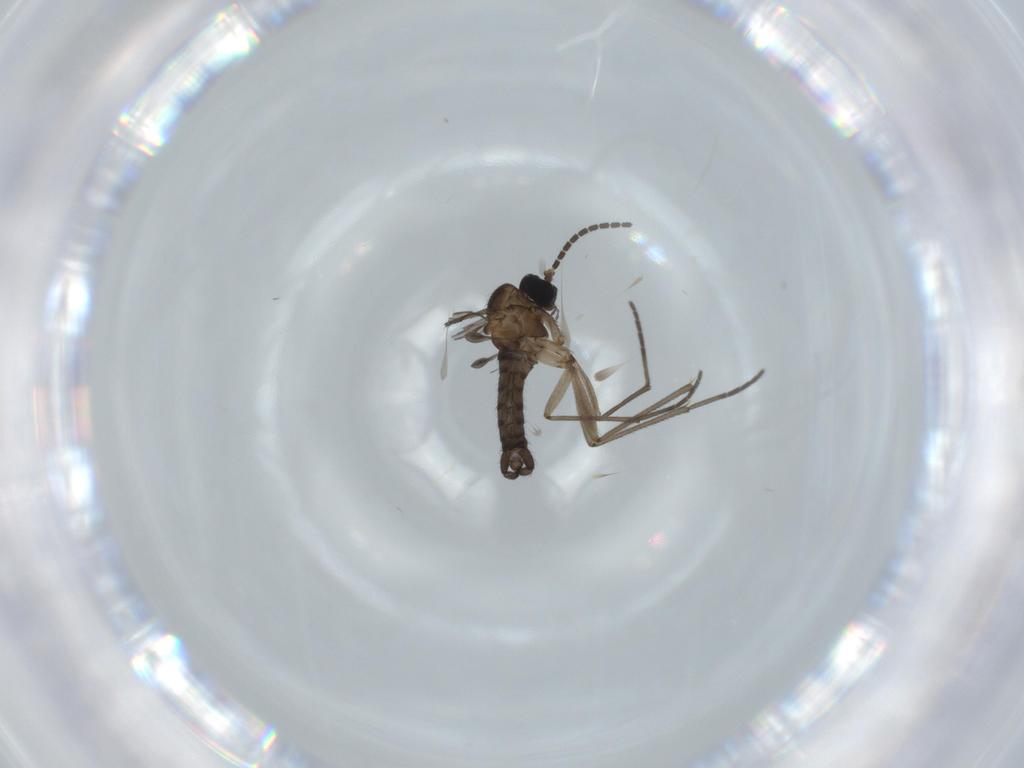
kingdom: Animalia
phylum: Arthropoda
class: Insecta
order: Diptera
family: Sciaridae
